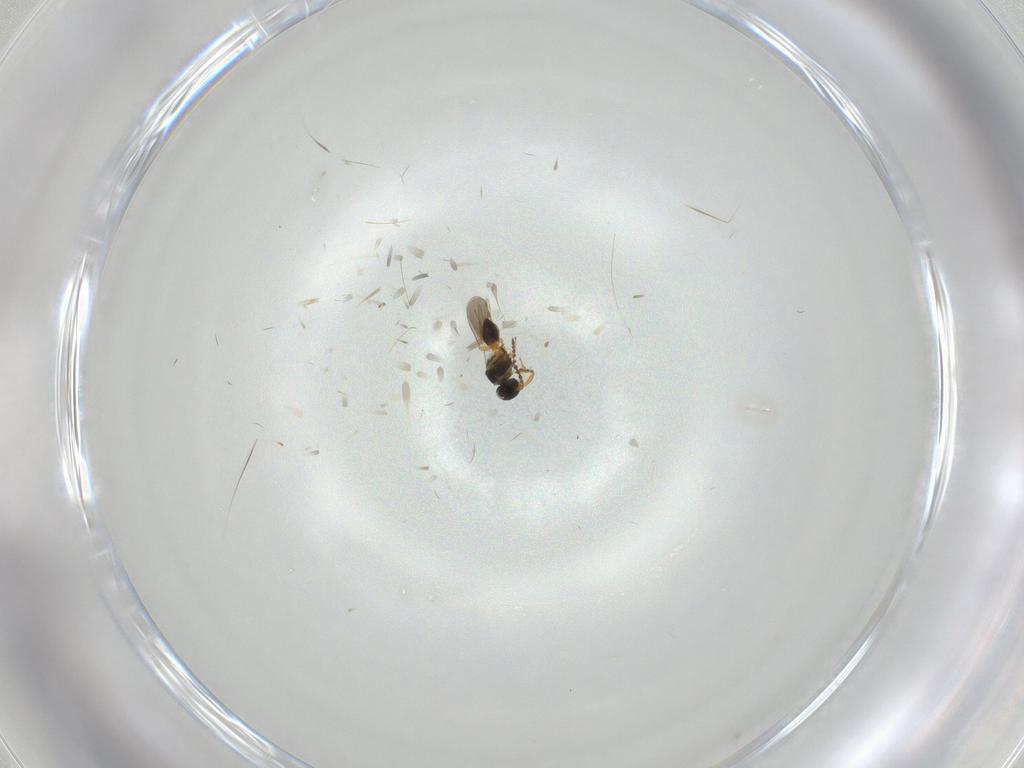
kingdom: Animalia
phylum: Arthropoda
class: Insecta
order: Hymenoptera
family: Platygastridae
